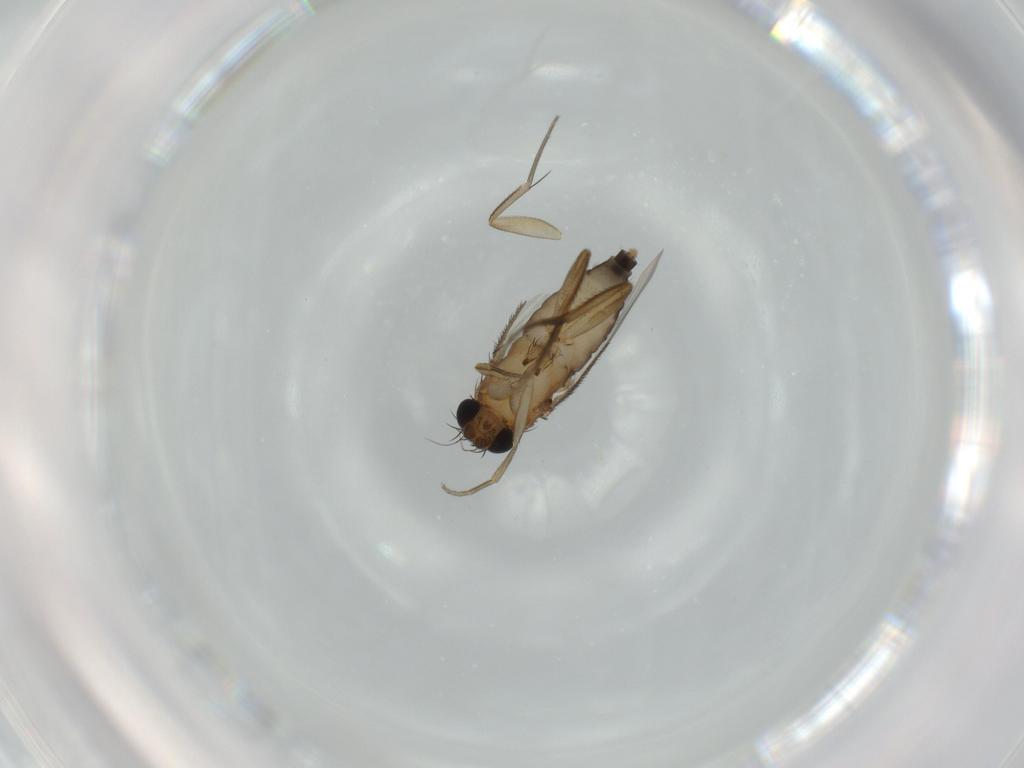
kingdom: Animalia
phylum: Arthropoda
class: Insecta
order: Diptera
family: Phoridae
